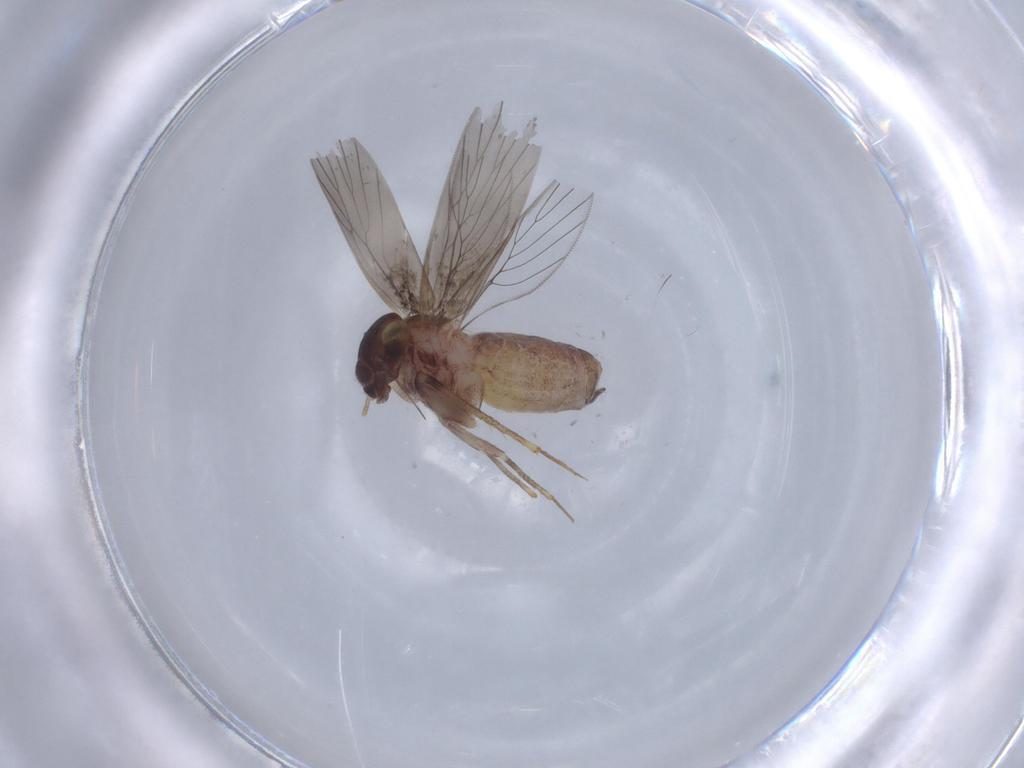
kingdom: Animalia
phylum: Arthropoda
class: Insecta
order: Psocodea
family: Lepidopsocidae
